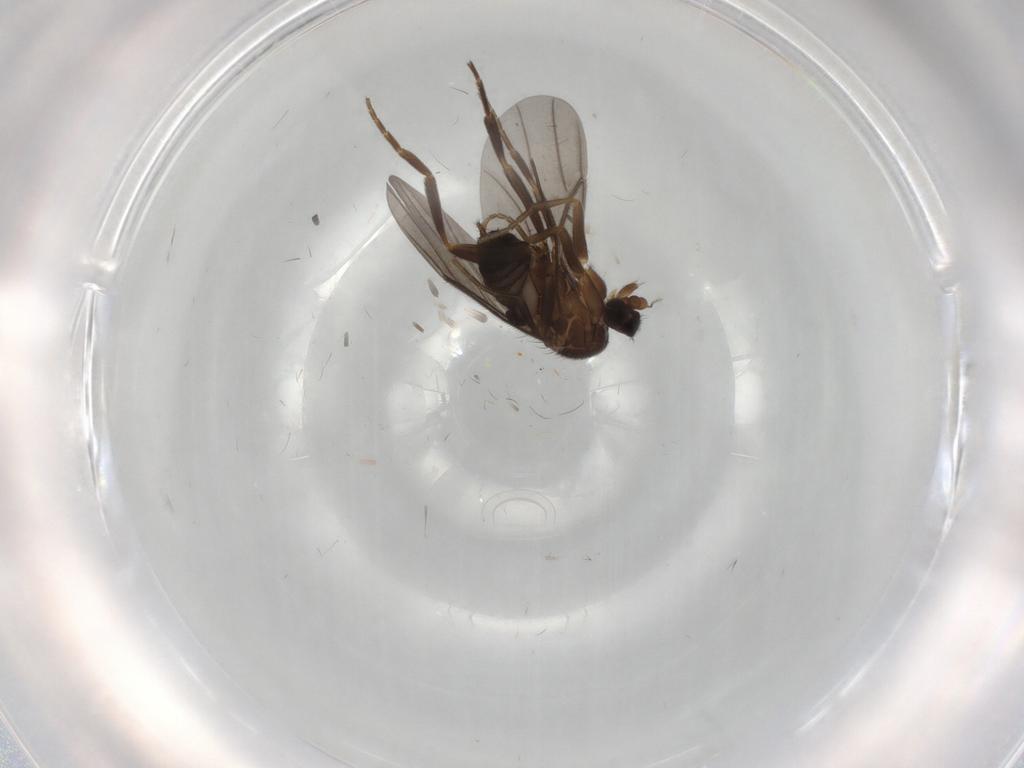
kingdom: Animalia
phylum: Arthropoda
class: Insecta
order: Diptera
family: Phoridae
